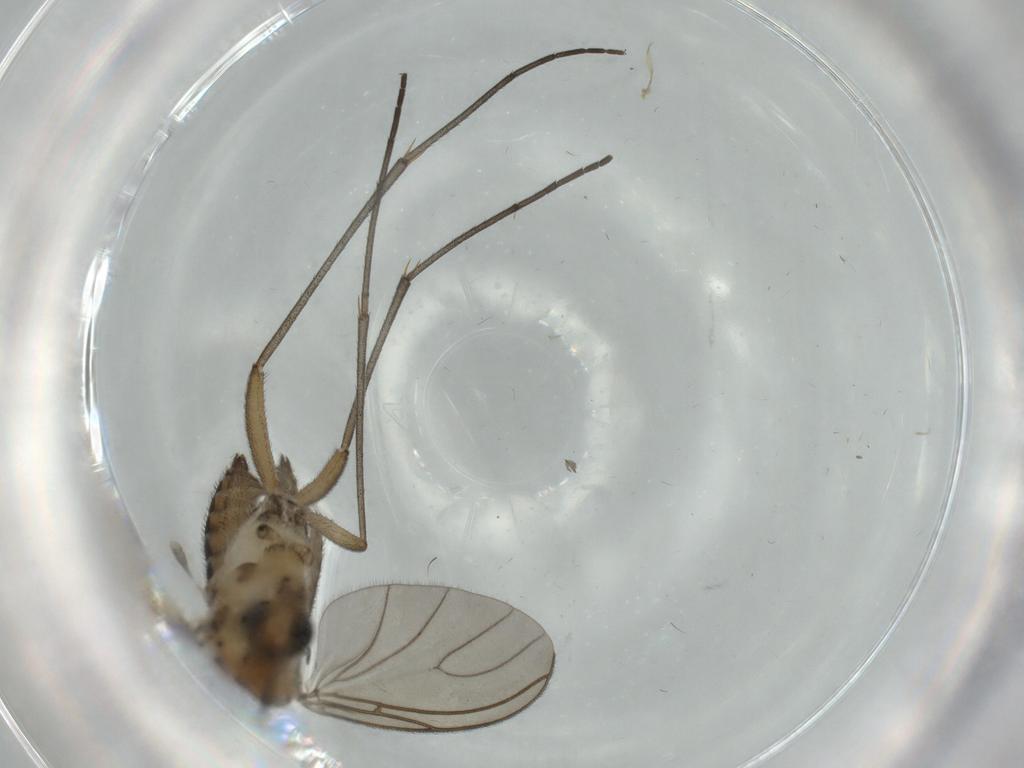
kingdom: Animalia
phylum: Arthropoda
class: Insecta
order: Diptera
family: Sciaridae
